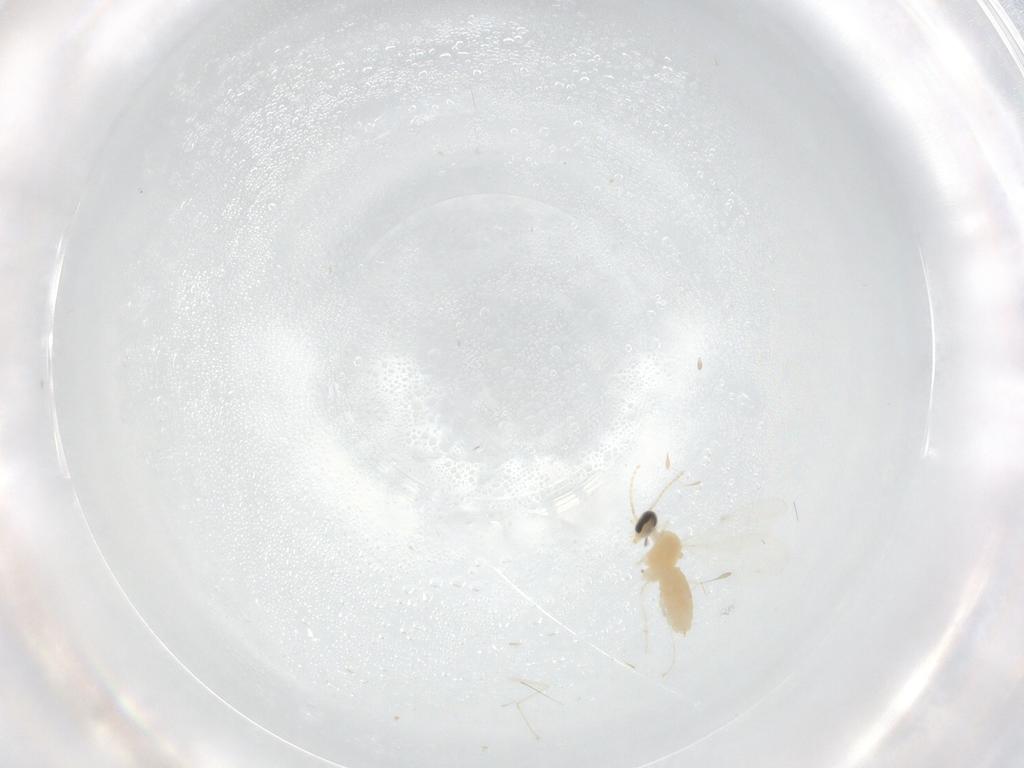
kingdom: Animalia
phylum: Arthropoda
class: Insecta
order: Diptera
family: Cecidomyiidae
